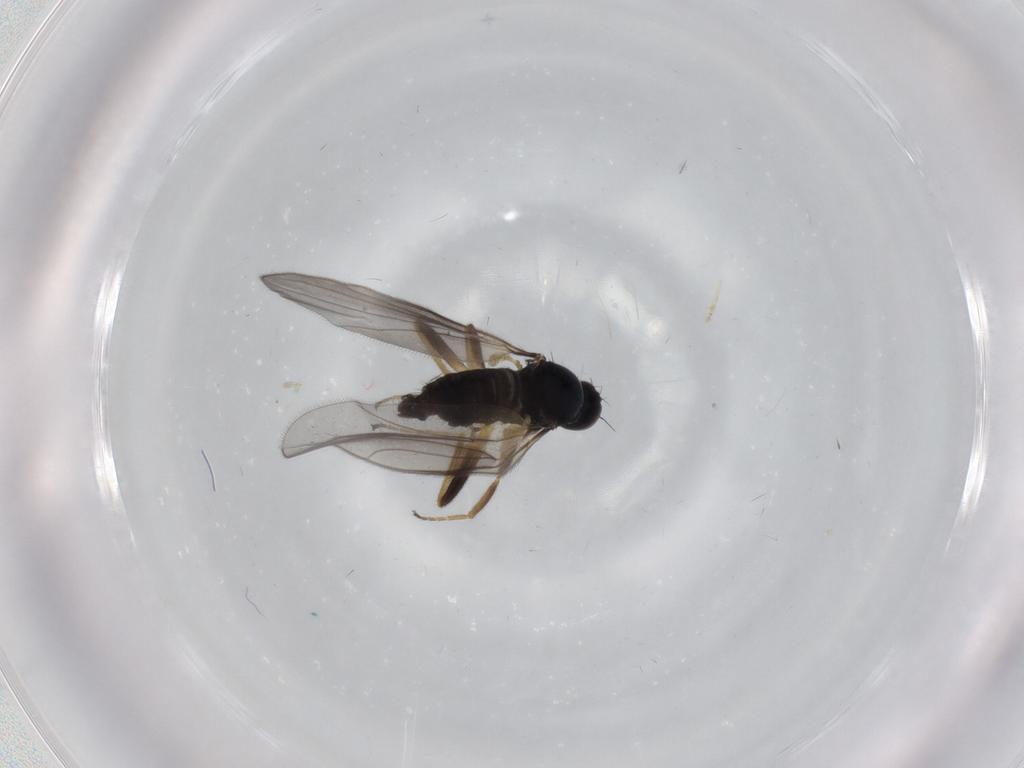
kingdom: Animalia
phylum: Arthropoda
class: Insecta
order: Diptera
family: Hybotidae
